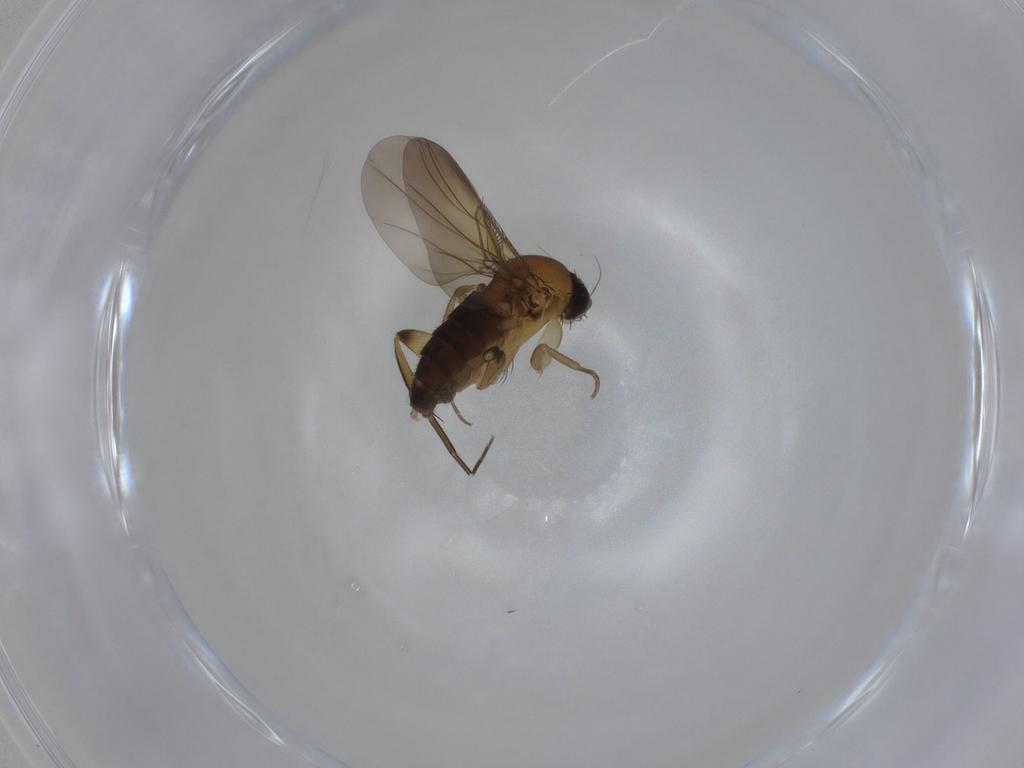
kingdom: Animalia
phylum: Arthropoda
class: Insecta
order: Diptera
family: Phoridae
